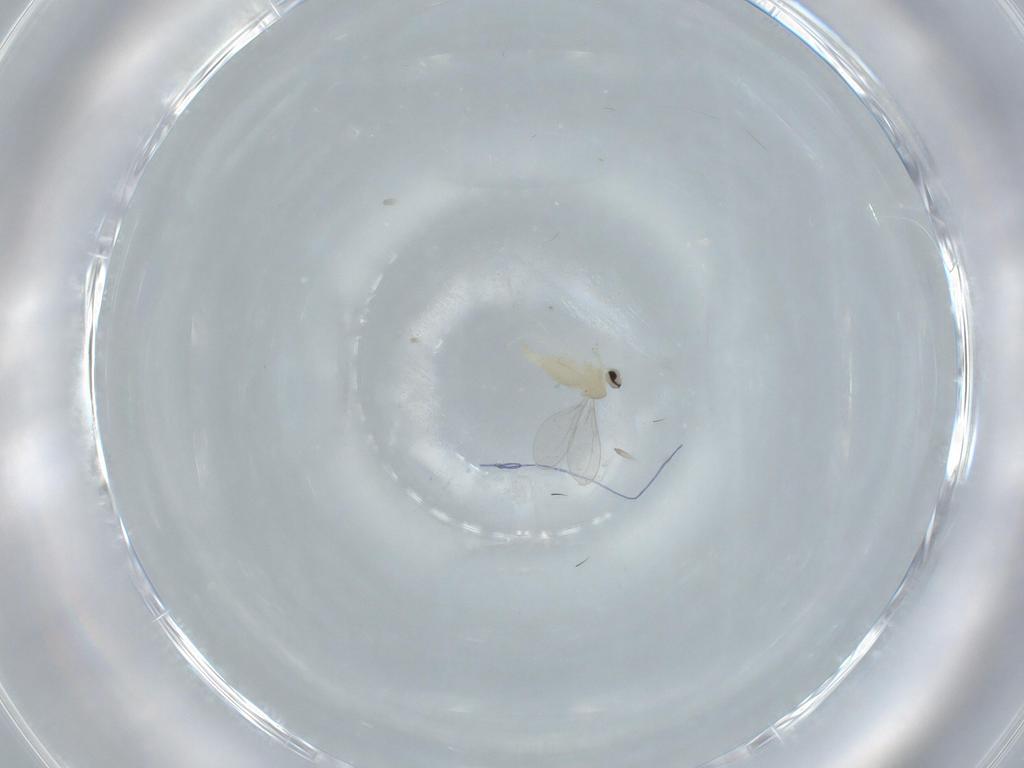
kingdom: Animalia
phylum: Arthropoda
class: Insecta
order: Diptera
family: Cecidomyiidae
